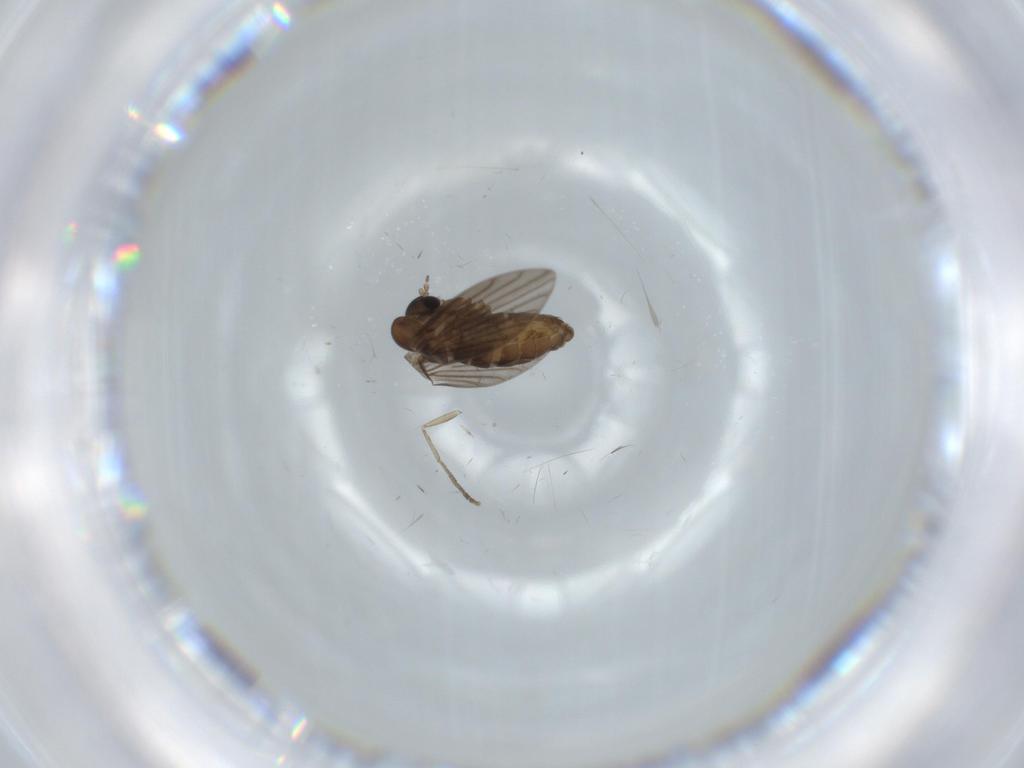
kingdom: Animalia
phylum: Arthropoda
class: Insecta
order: Diptera
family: Psychodidae
